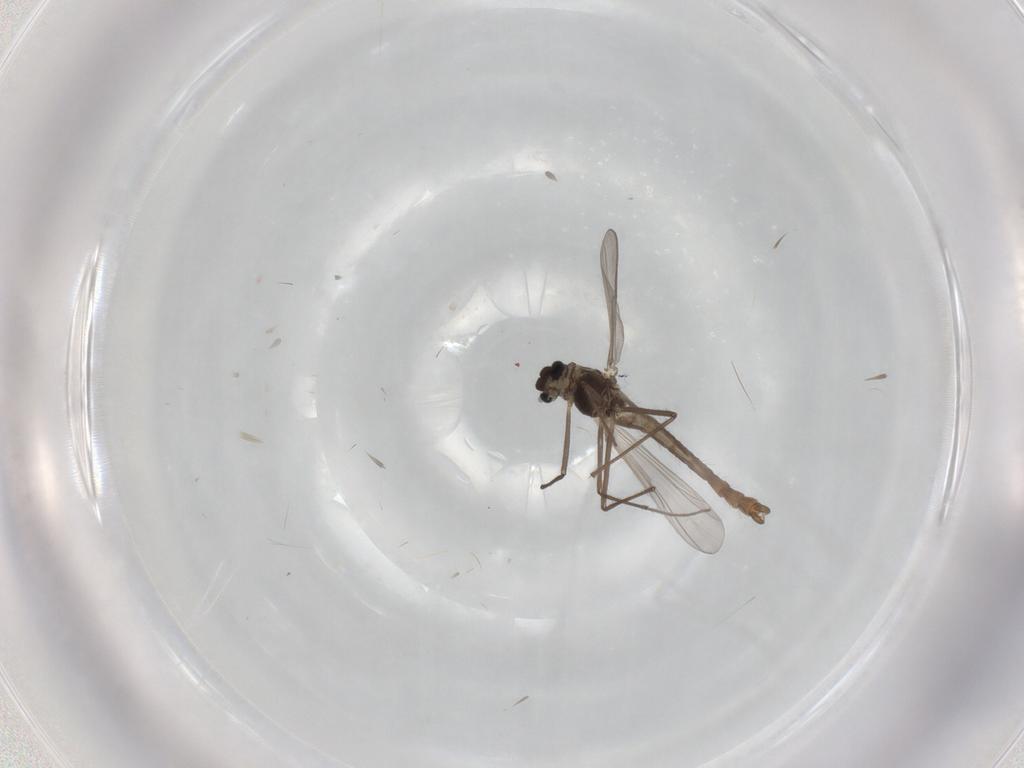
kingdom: Animalia
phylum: Arthropoda
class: Insecta
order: Diptera
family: Chironomidae
